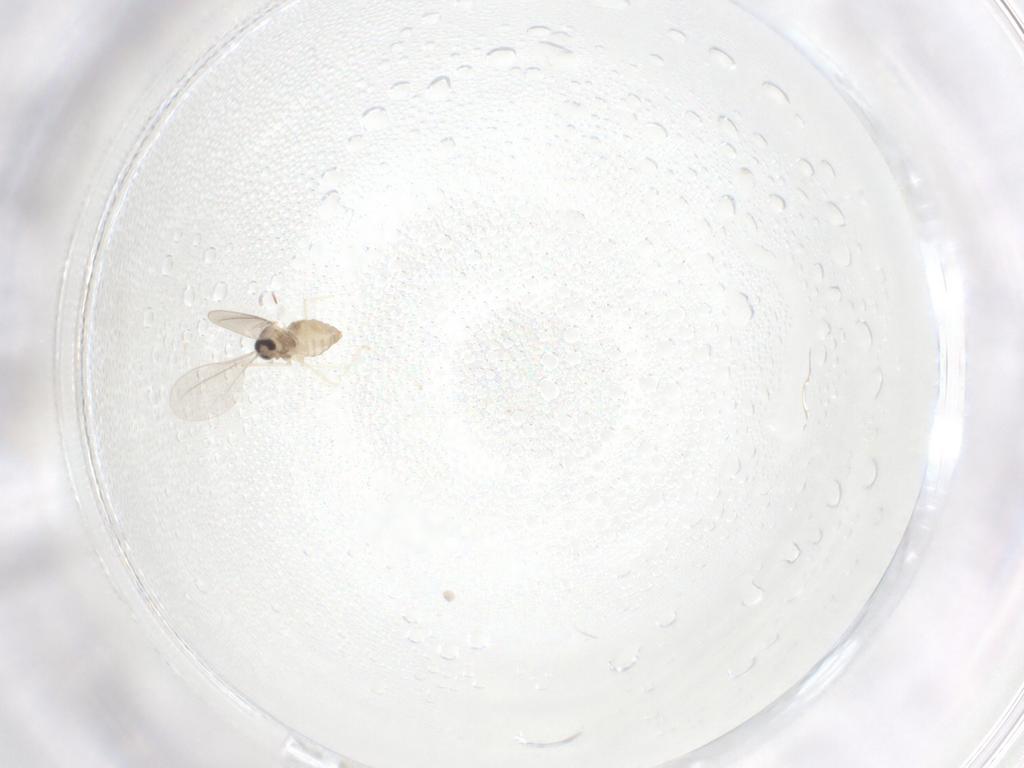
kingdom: Animalia
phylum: Arthropoda
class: Insecta
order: Diptera
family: Cecidomyiidae
